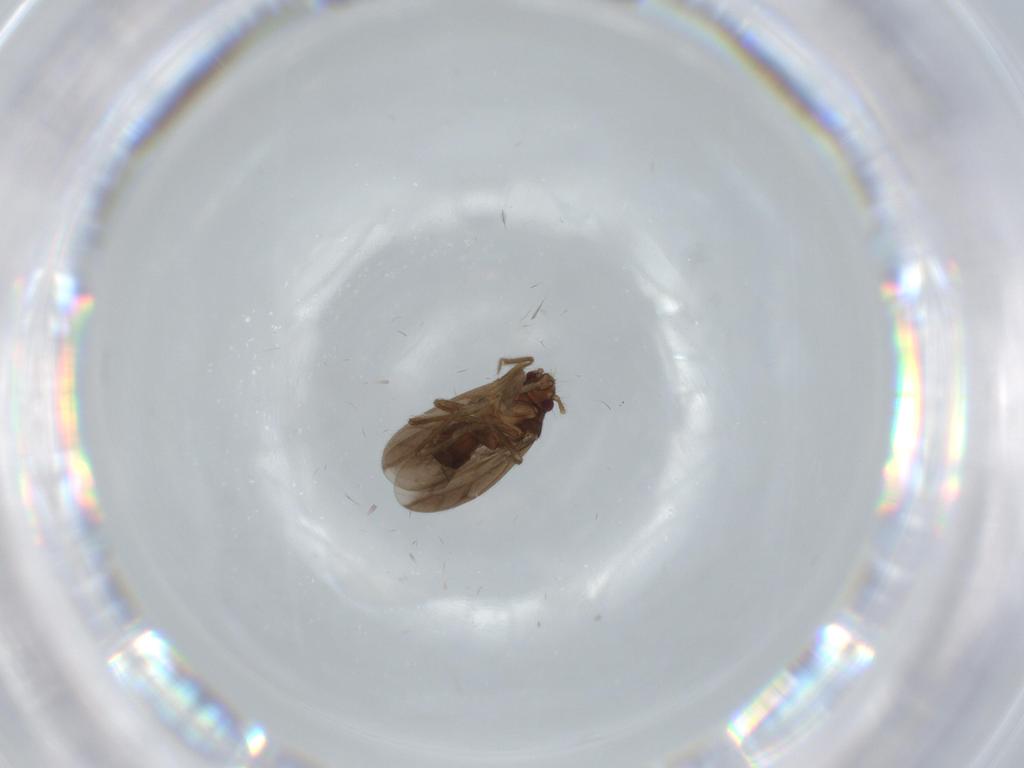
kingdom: Animalia
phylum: Arthropoda
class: Insecta
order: Hemiptera
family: Ceratocombidae
